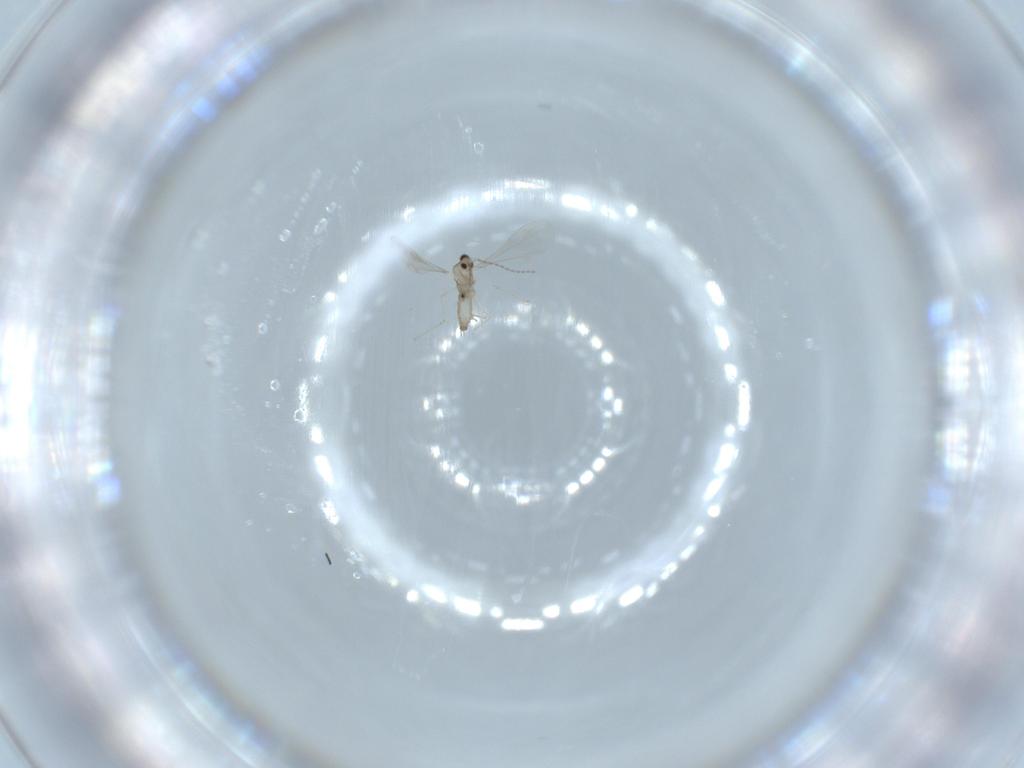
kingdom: Animalia
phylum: Arthropoda
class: Insecta
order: Diptera
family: Cecidomyiidae
